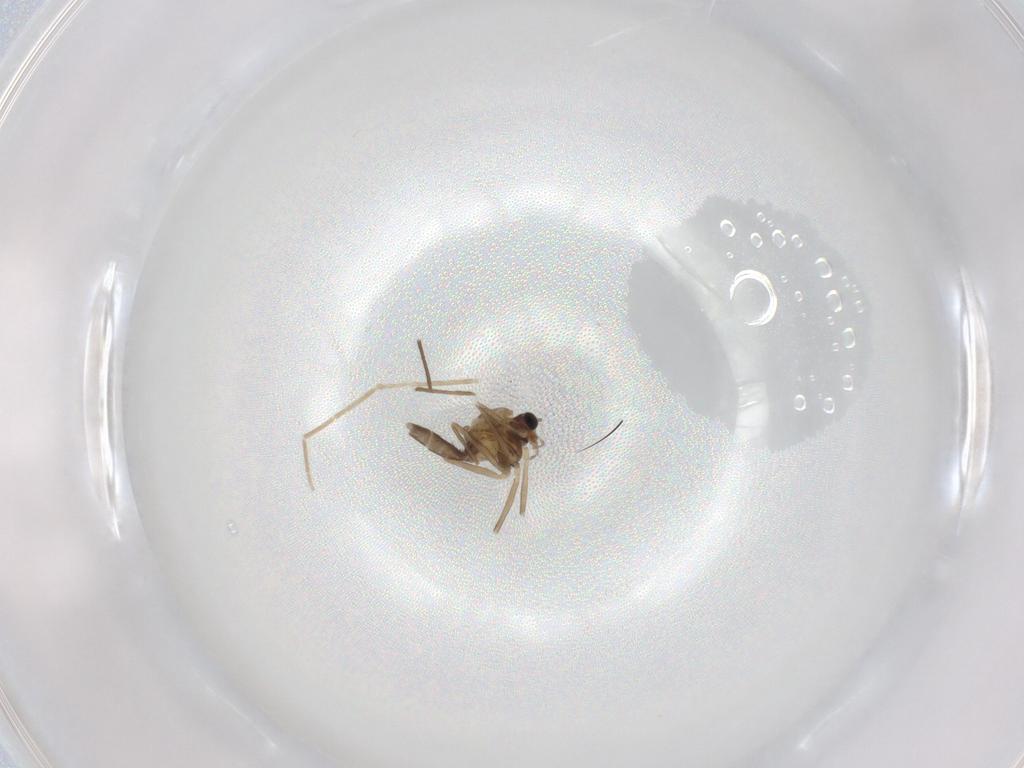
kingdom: Animalia
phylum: Arthropoda
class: Insecta
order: Diptera
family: Chironomidae
